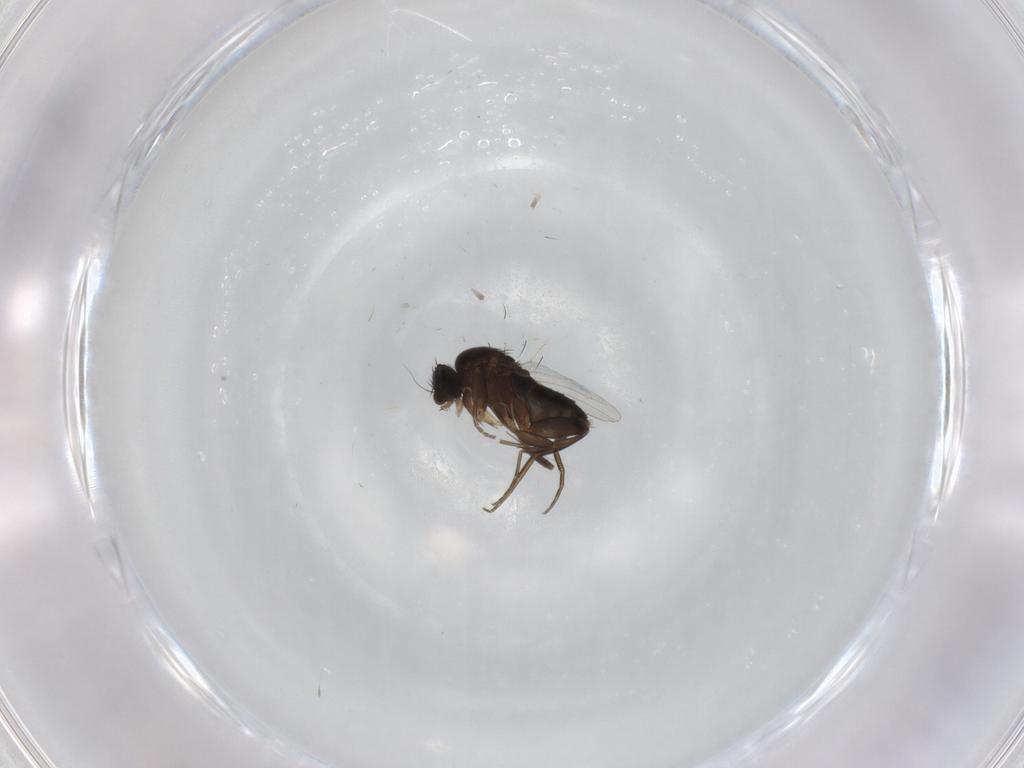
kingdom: Animalia
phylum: Arthropoda
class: Insecta
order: Diptera
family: Phoridae
